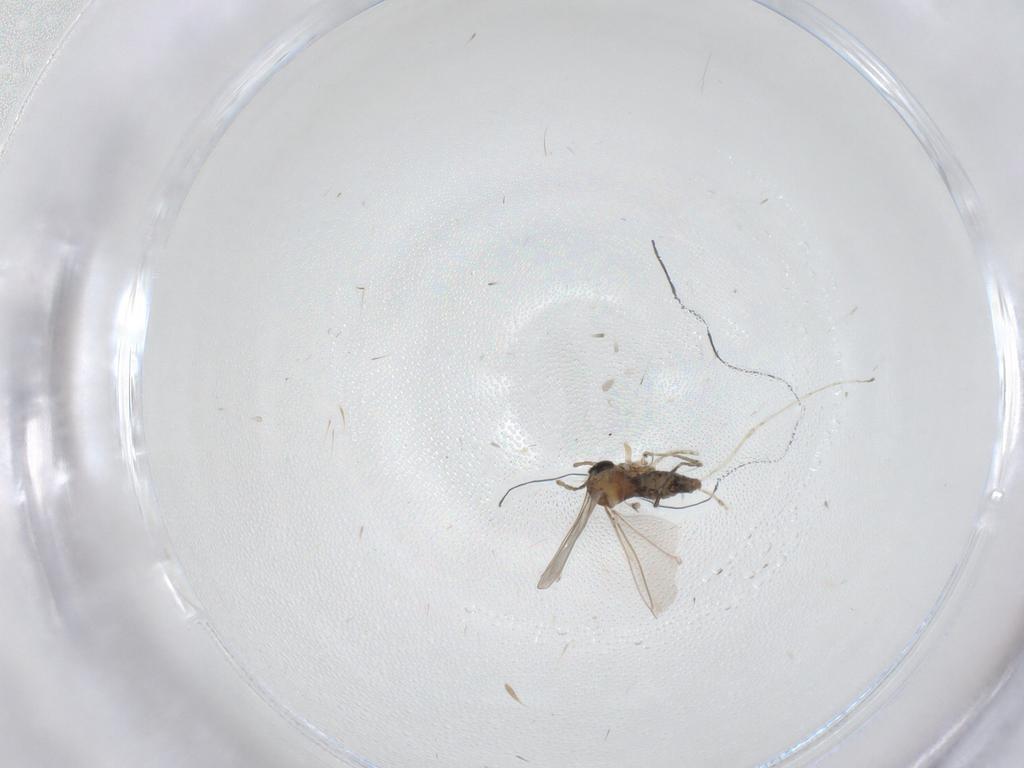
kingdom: Animalia
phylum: Arthropoda
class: Insecta
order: Diptera
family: Cecidomyiidae
